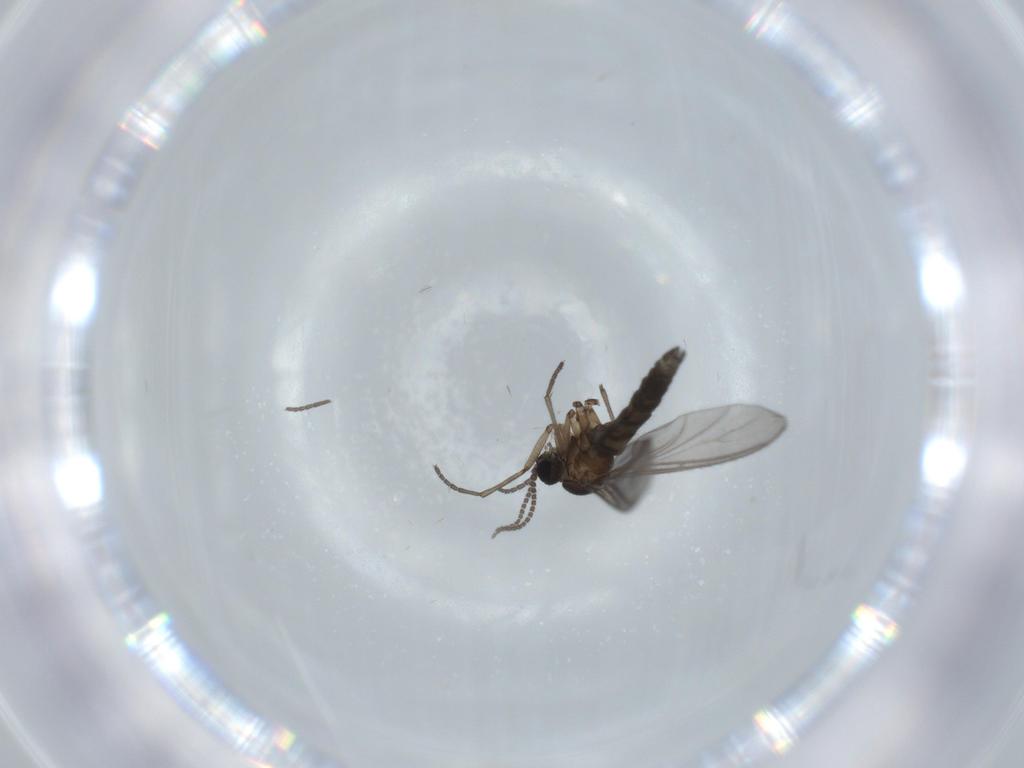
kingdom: Animalia
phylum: Arthropoda
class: Insecta
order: Diptera
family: Sciaridae
